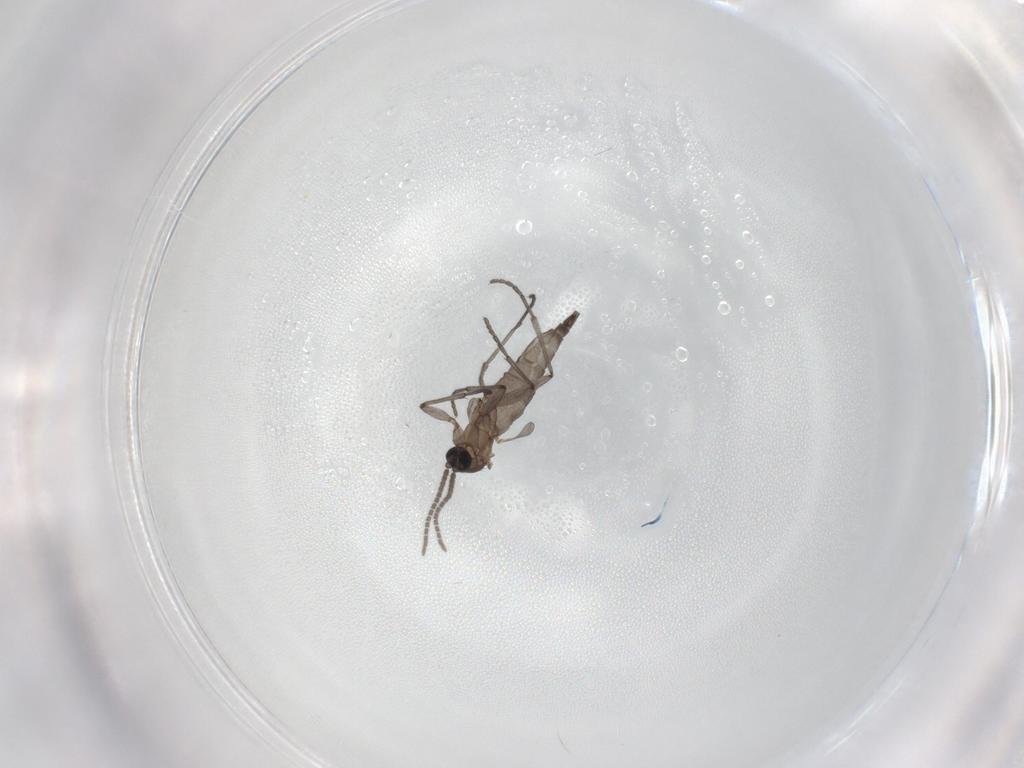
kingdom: Animalia
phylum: Arthropoda
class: Insecta
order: Diptera
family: Sciaridae
